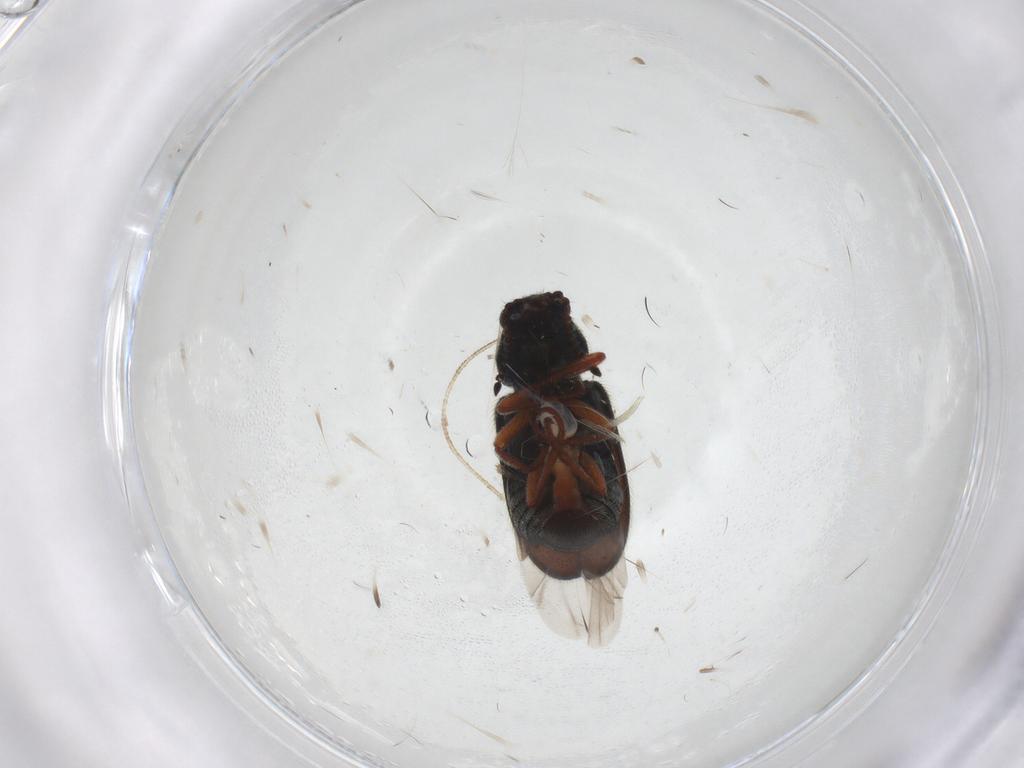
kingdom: Animalia
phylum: Arthropoda
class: Insecta
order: Coleoptera
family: Melyridae
